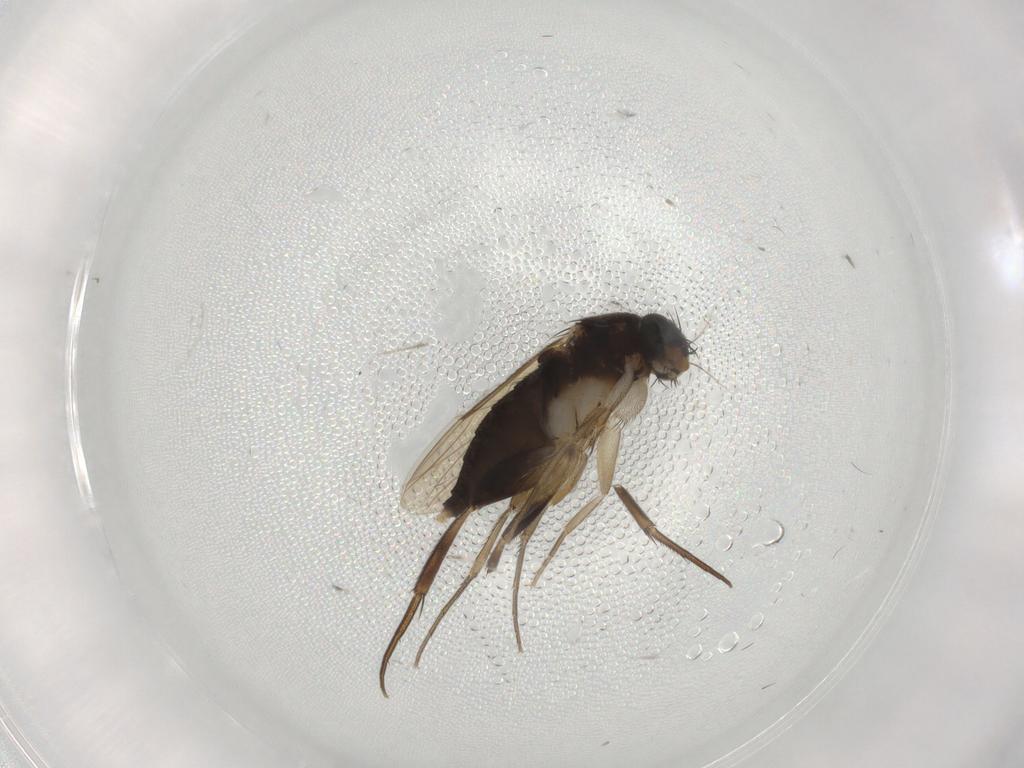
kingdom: Animalia
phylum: Arthropoda
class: Insecta
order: Diptera
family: Phoridae
